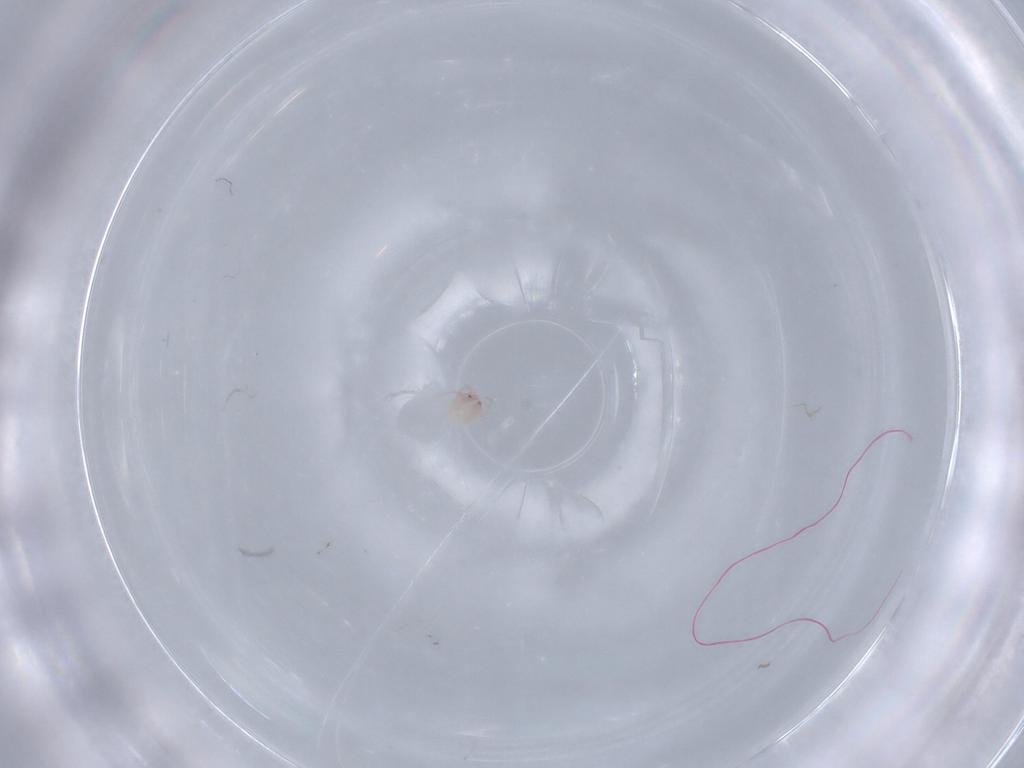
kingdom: Animalia
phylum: Arthropoda
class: Arachnida
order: Trombidiformes
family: Lebertiidae
